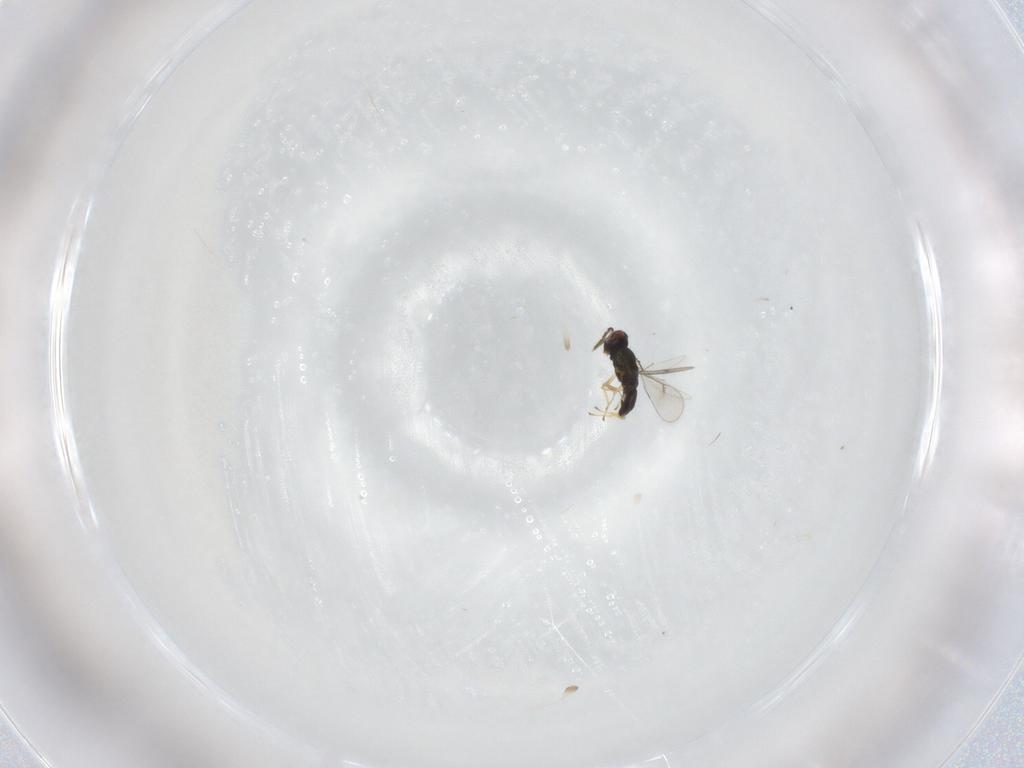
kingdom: Animalia
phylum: Arthropoda
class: Insecta
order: Hymenoptera
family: Eulophidae
